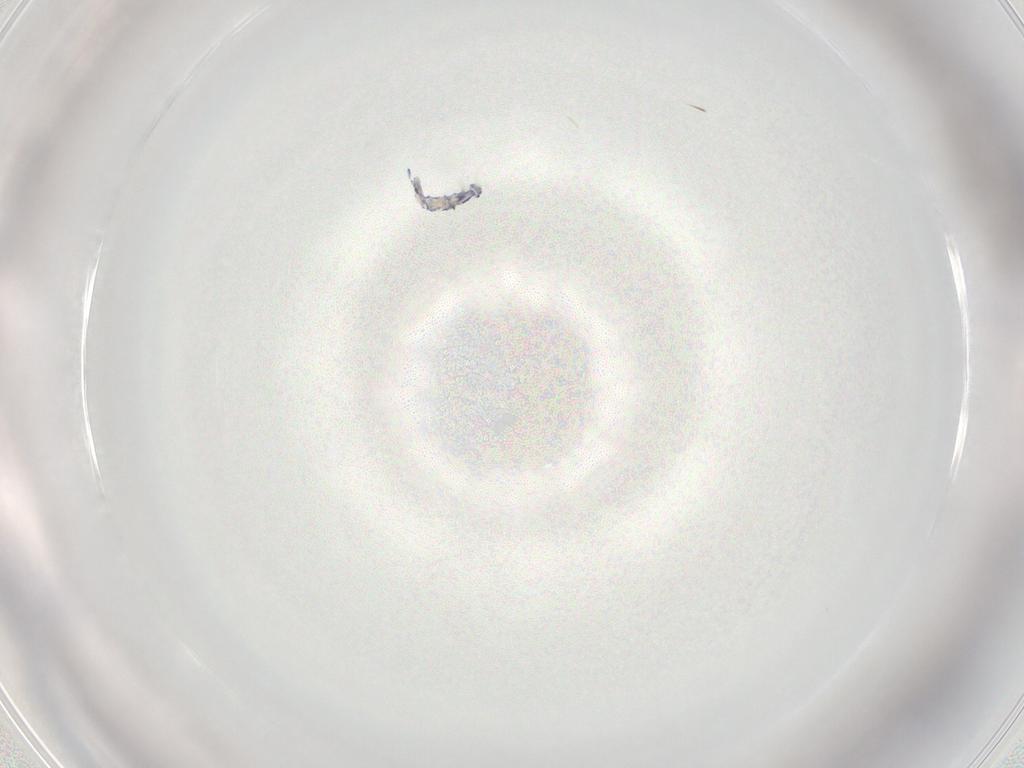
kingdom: Animalia
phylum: Arthropoda
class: Collembola
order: Entomobryomorpha
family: Entomobryidae
